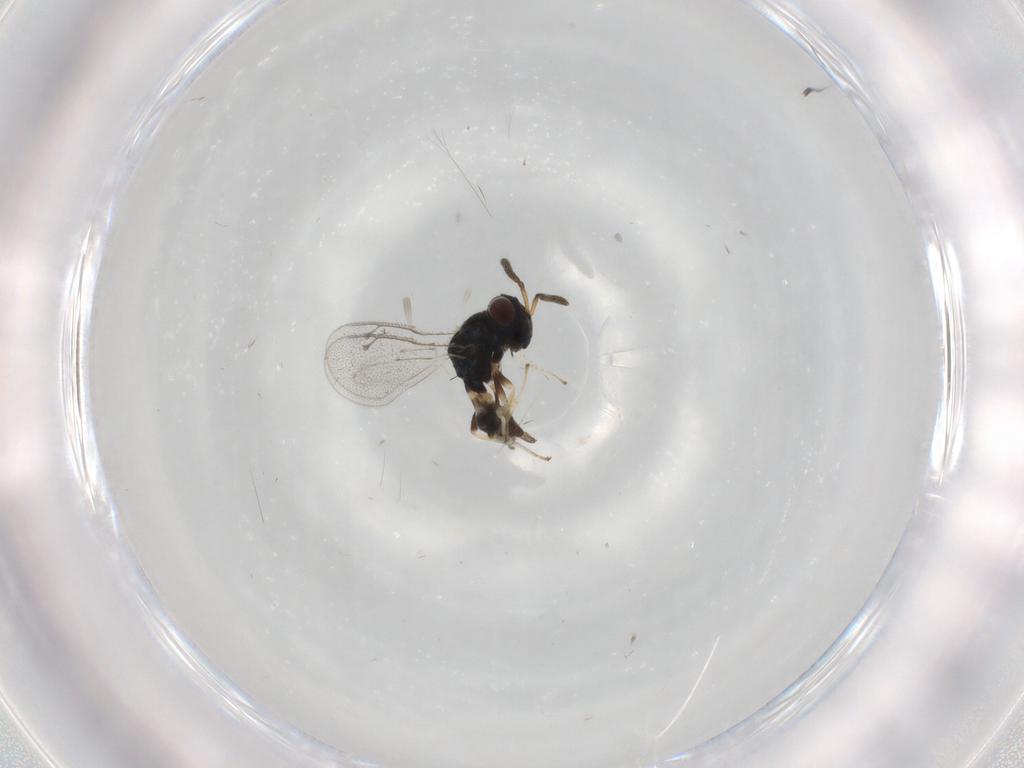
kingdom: Animalia
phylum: Arthropoda
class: Insecta
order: Hymenoptera
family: Pteromalidae
